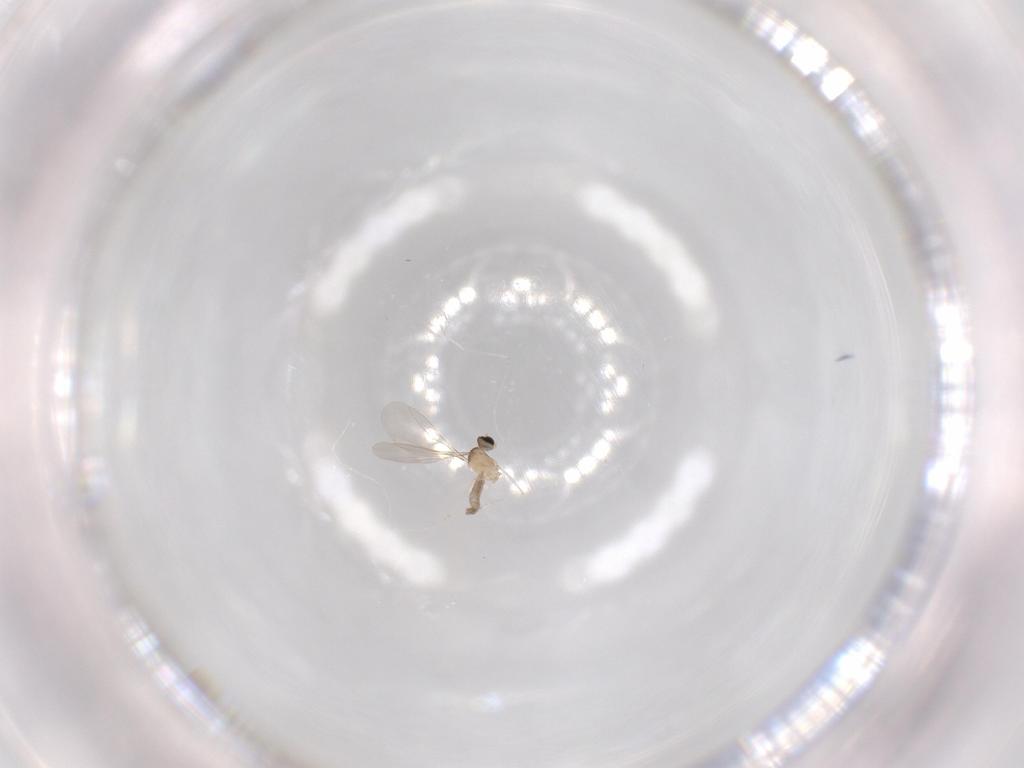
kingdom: Animalia
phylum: Arthropoda
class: Insecta
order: Diptera
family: Cecidomyiidae
